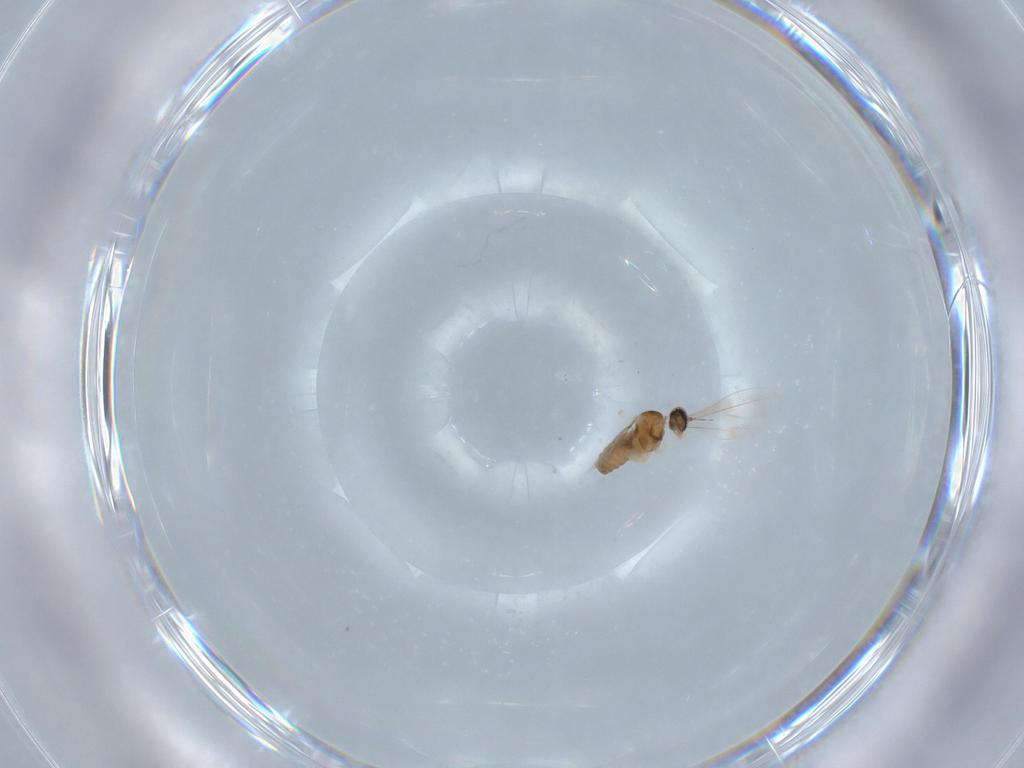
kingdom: Animalia
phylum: Arthropoda
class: Insecta
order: Diptera
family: Cecidomyiidae
